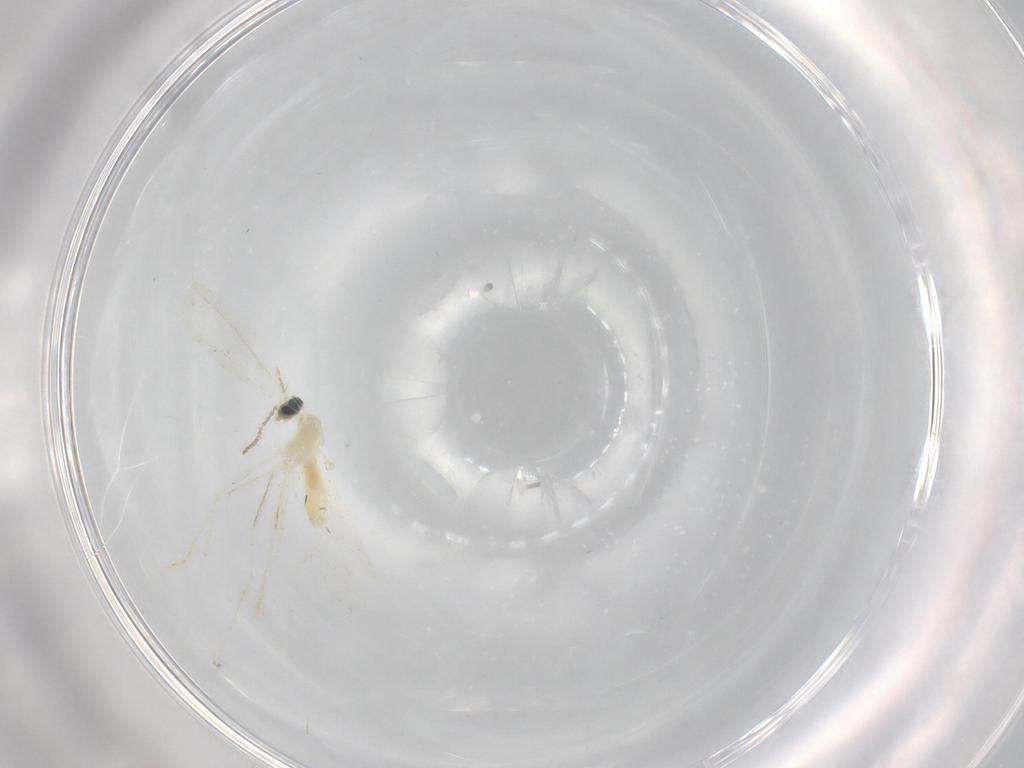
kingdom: Animalia
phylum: Arthropoda
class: Insecta
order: Diptera
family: Cecidomyiidae
